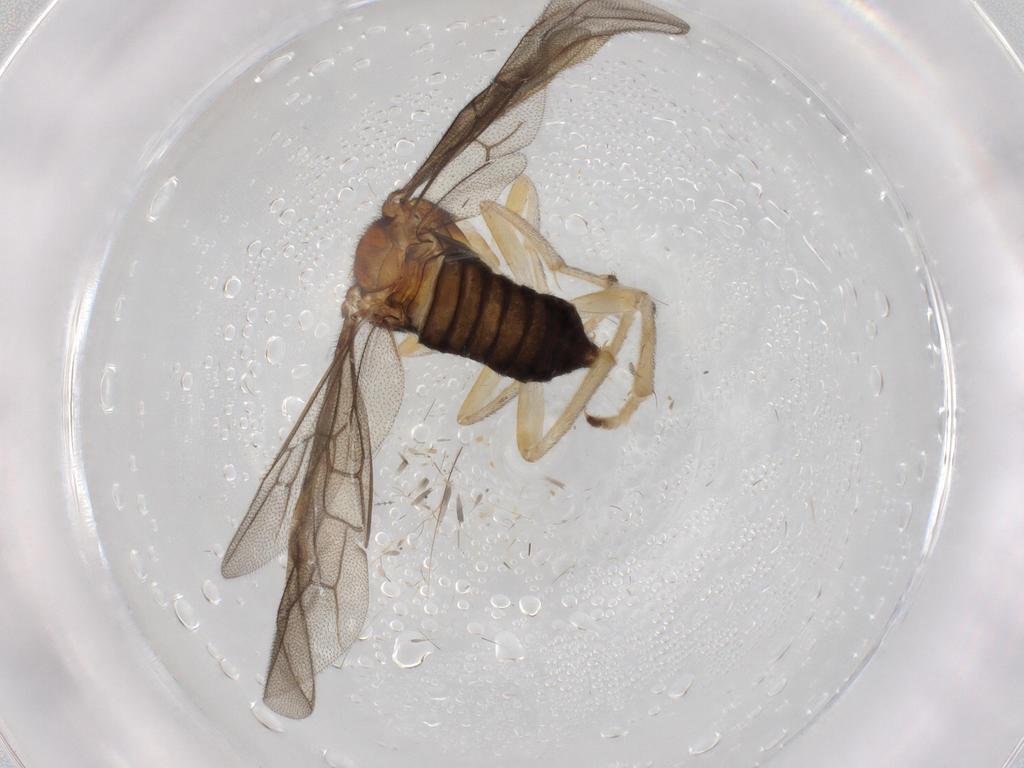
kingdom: Animalia
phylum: Arthropoda
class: Insecta
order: Hymenoptera
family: Pergidae
